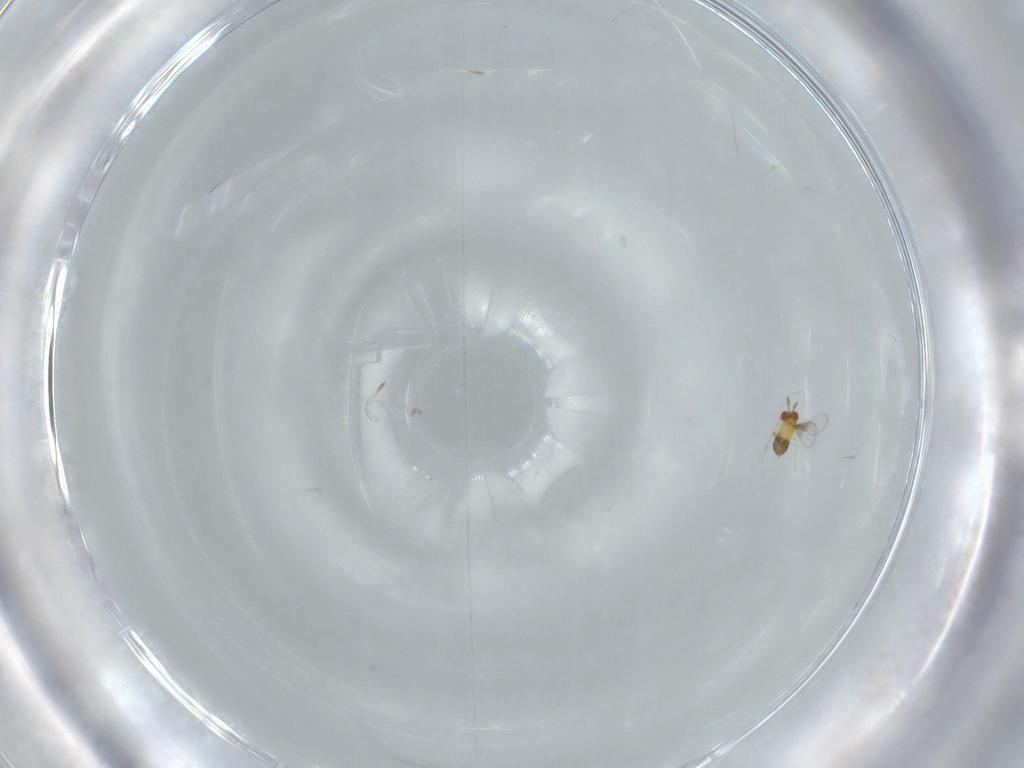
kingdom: Animalia
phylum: Arthropoda
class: Insecta
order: Hymenoptera
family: Trichogrammatidae
